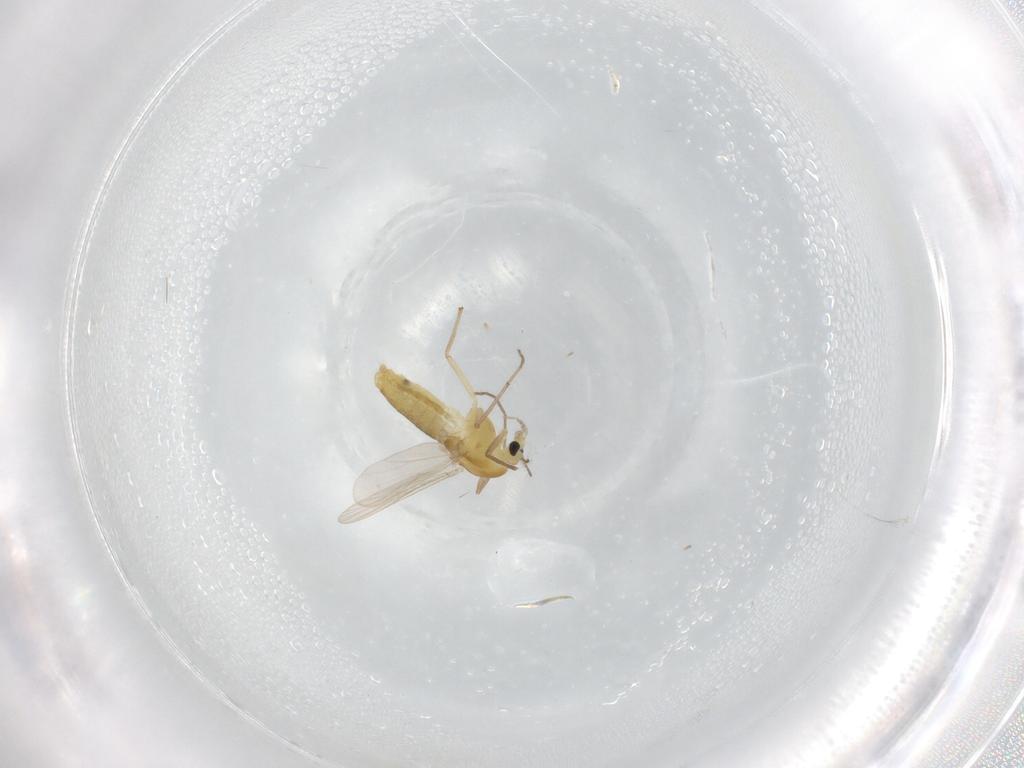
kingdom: Animalia
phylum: Arthropoda
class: Insecta
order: Diptera
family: Chironomidae
